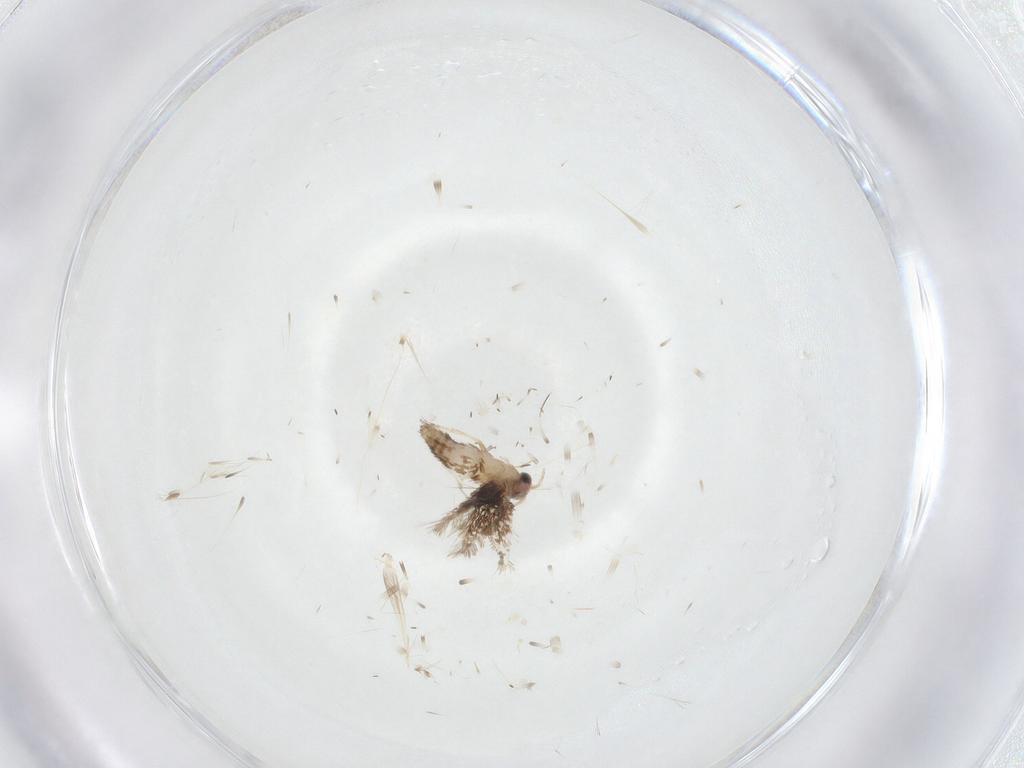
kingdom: Animalia
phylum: Arthropoda
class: Insecta
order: Lepidoptera
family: Nepticulidae
